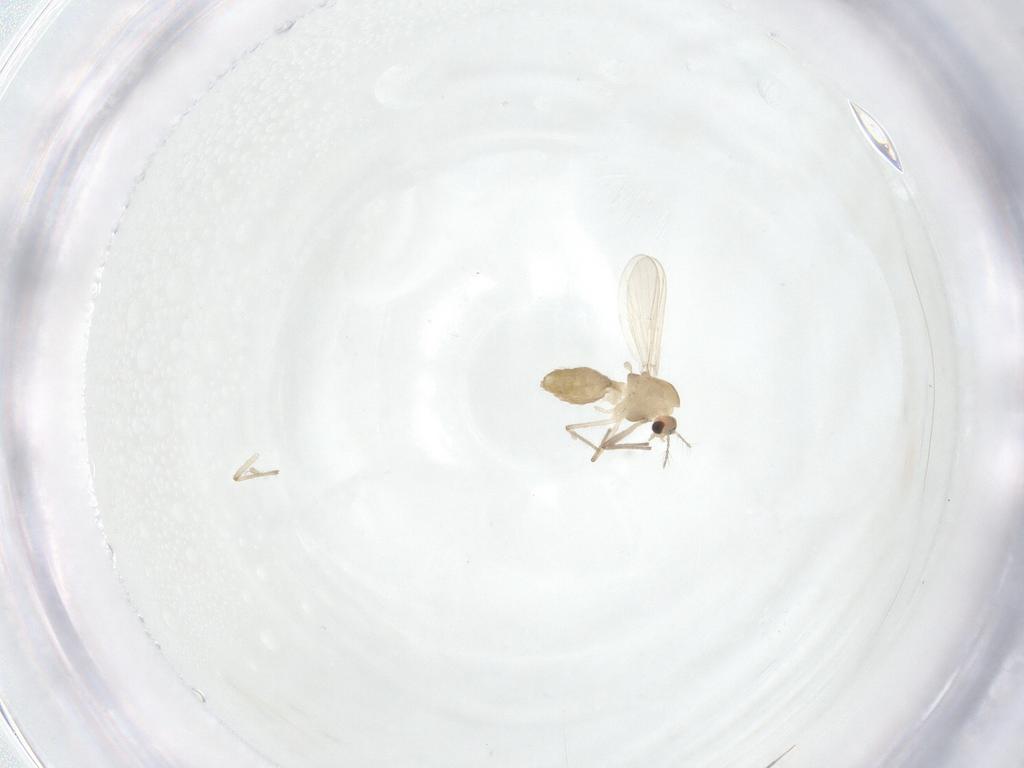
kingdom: Animalia
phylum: Arthropoda
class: Insecta
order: Diptera
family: Chironomidae
